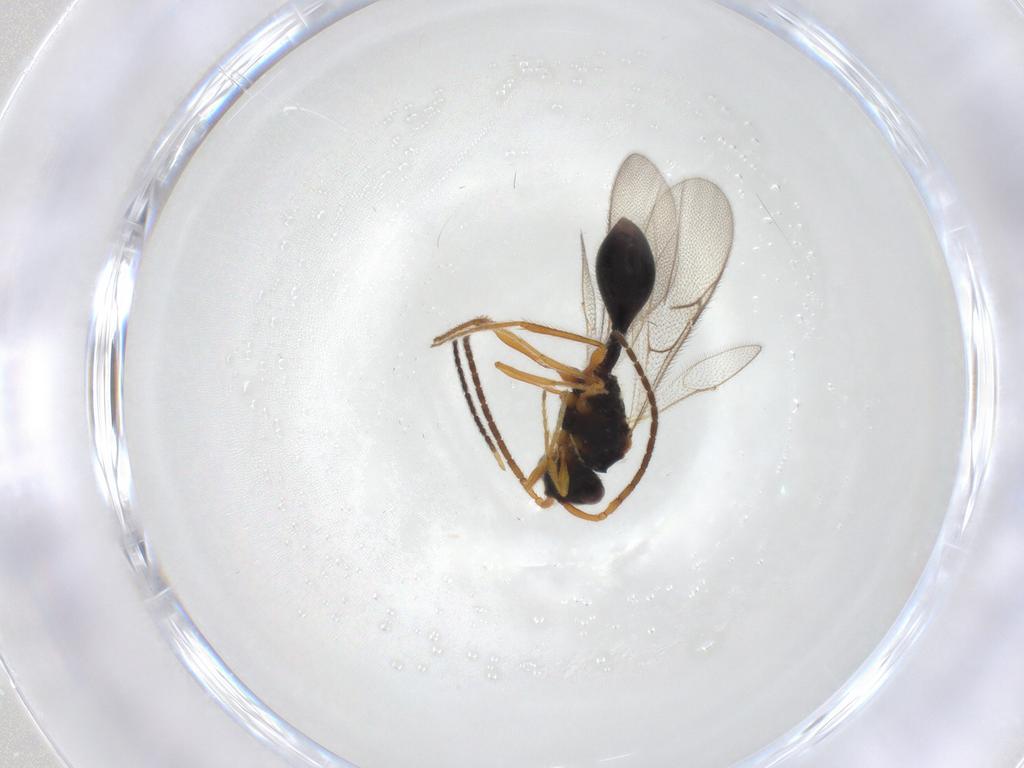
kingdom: Animalia
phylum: Arthropoda
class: Insecta
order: Hymenoptera
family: Diapriidae
